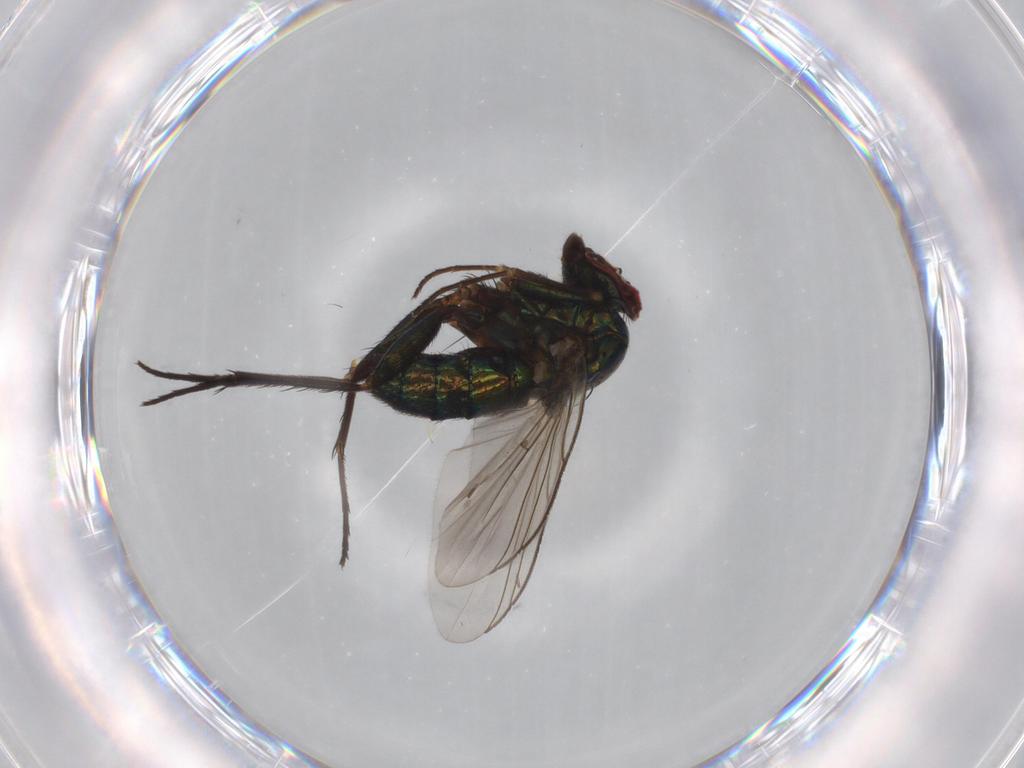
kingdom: Animalia
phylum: Arthropoda
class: Insecta
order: Diptera
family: Dolichopodidae
